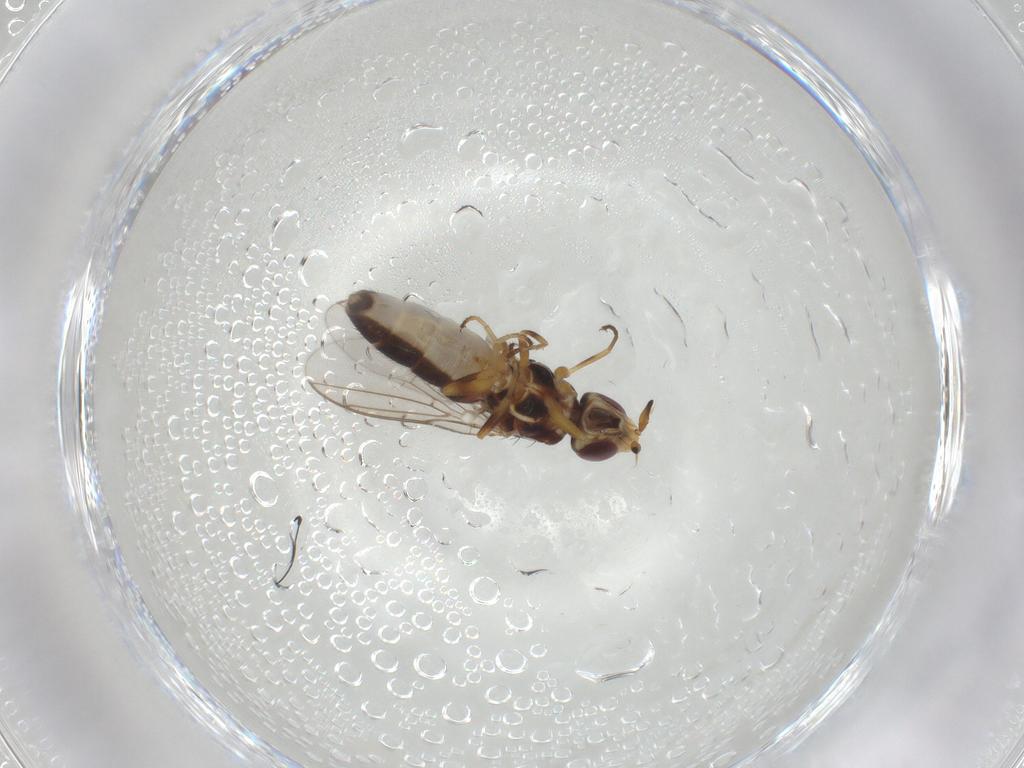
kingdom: Animalia
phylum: Arthropoda
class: Insecta
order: Diptera
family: Chloropidae
